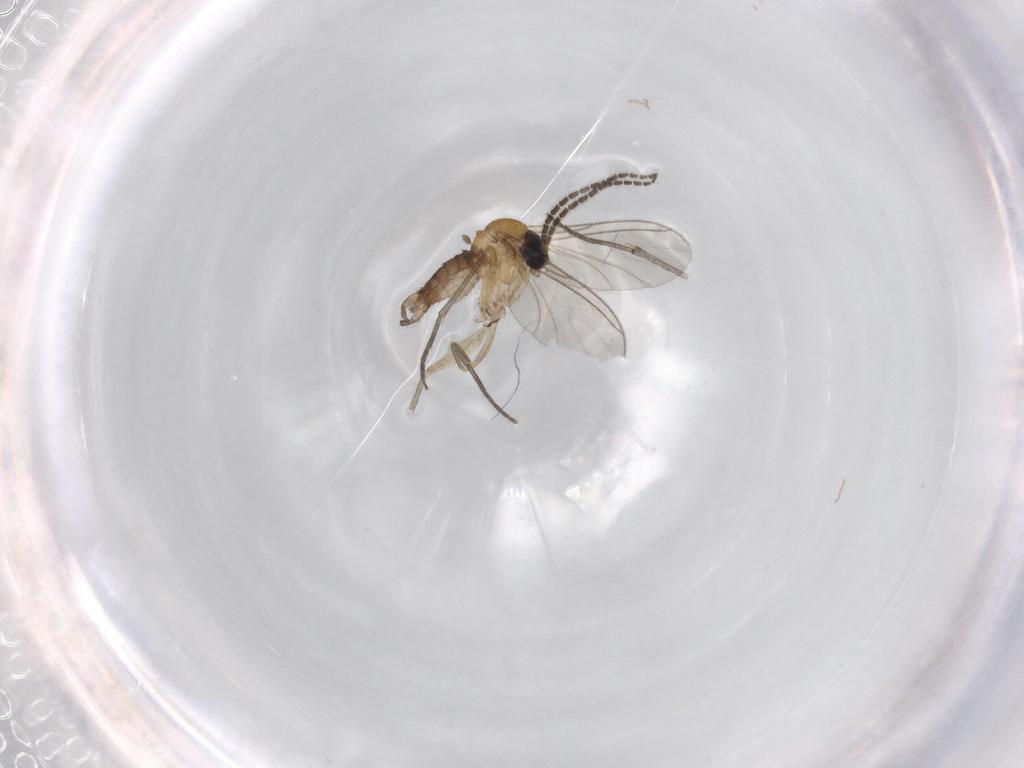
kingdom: Animalia
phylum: Arthropoda
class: Insecta
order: Diptera
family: Sciaridae
